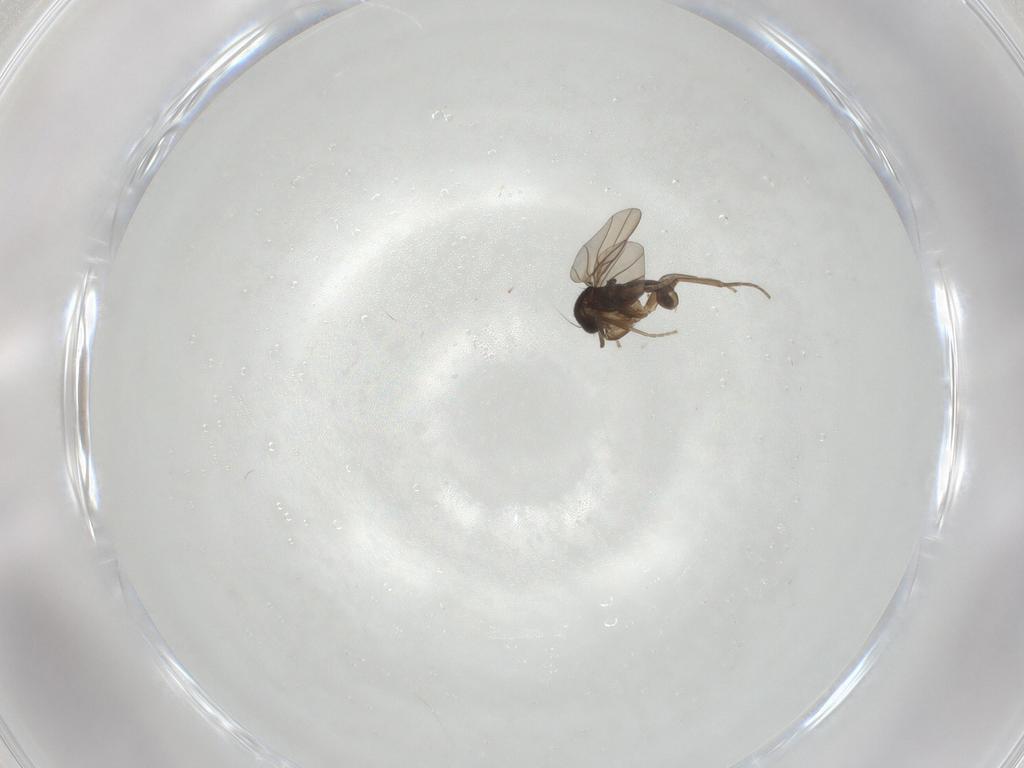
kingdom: Animalia
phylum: Arthropoda
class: Insecta
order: Diptera
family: Phoridae
